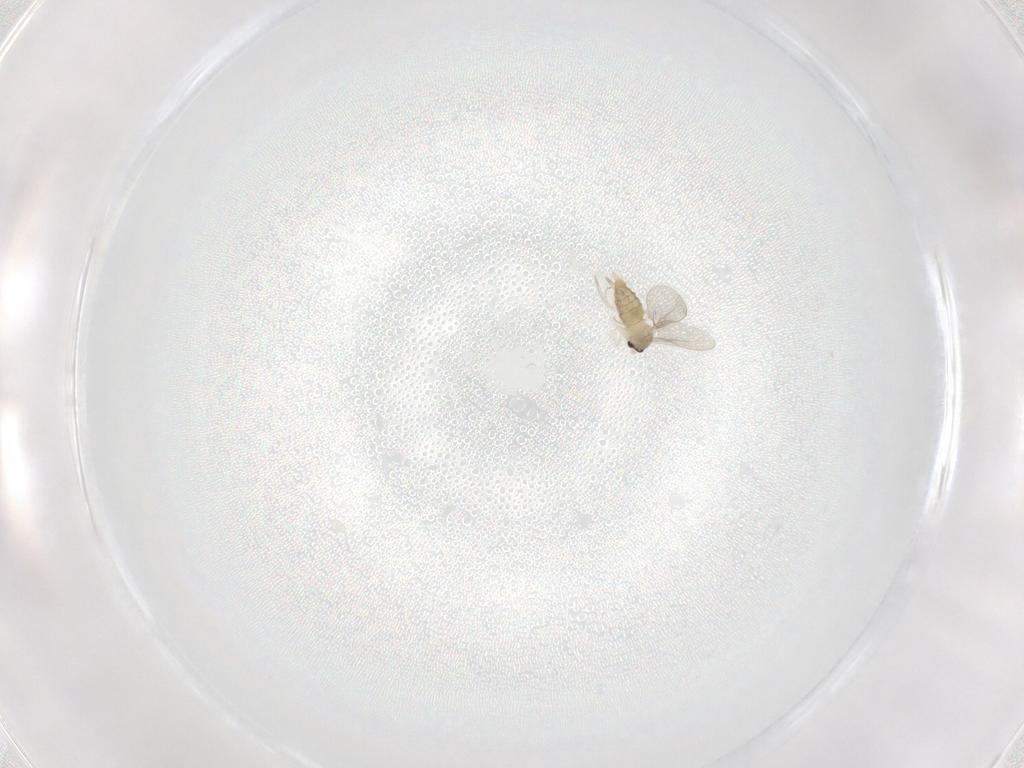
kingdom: Animalia
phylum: Arthropoda
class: Insecta
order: Diptera
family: Cecidomyiidae
